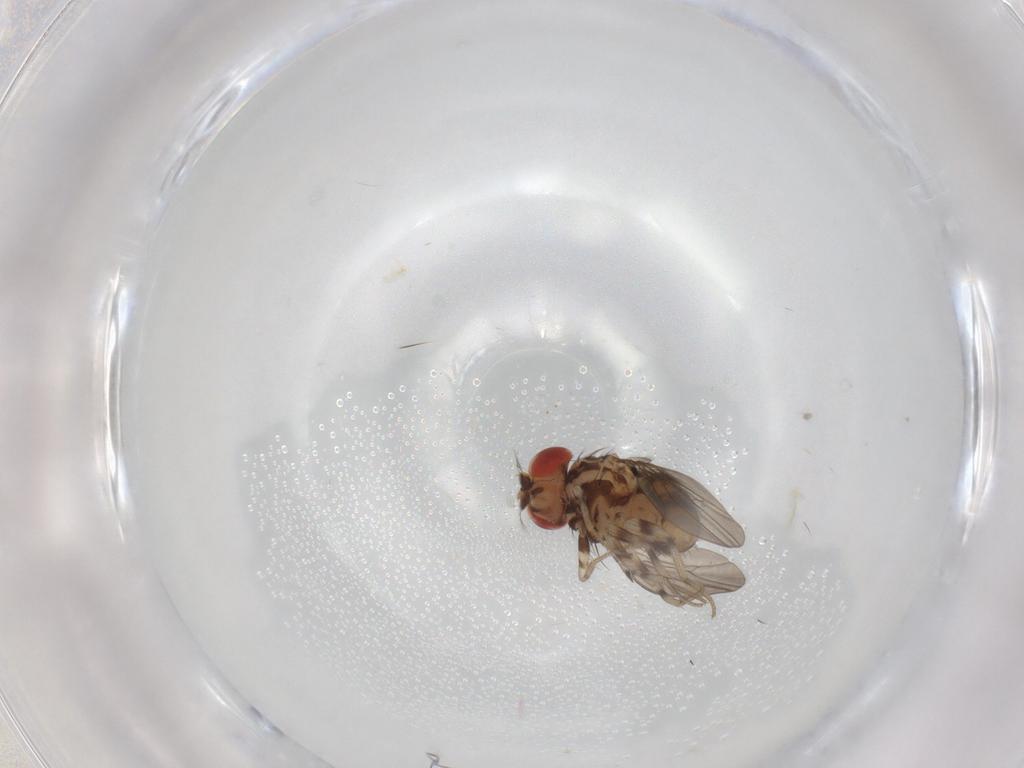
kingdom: Animalia
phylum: Arthropoda
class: Insecta
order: Diptera
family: Drosophilidae
